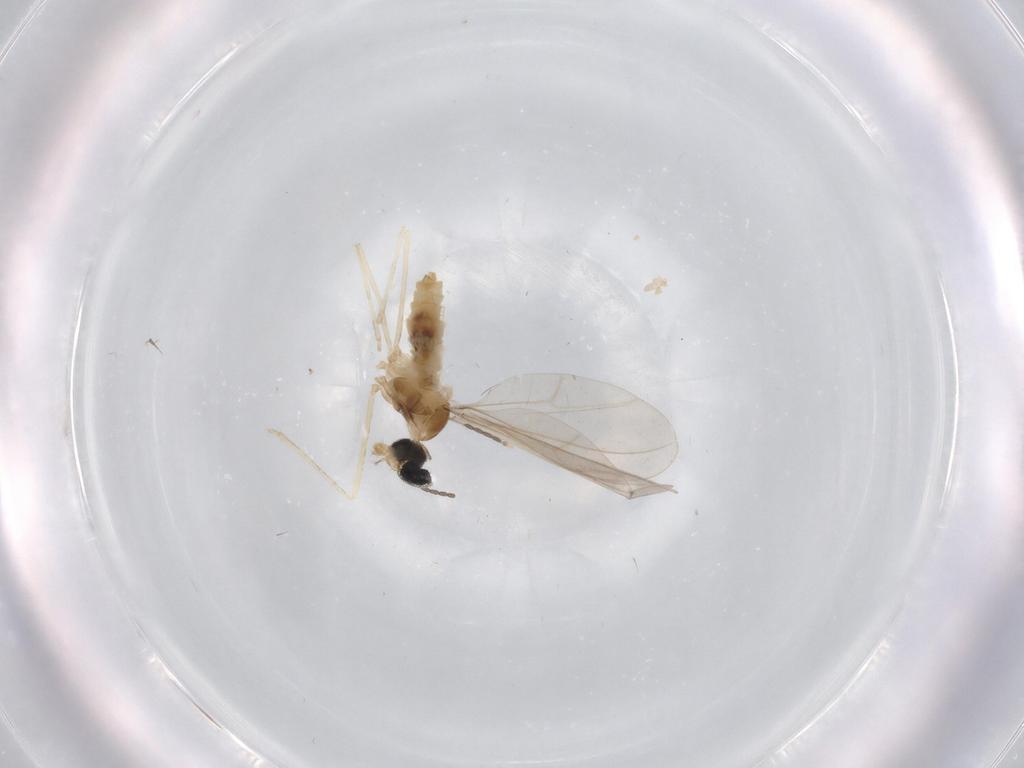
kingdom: Animalia
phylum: Arthropoda
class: Insecta
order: Diptera
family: Cecidomyiidae
